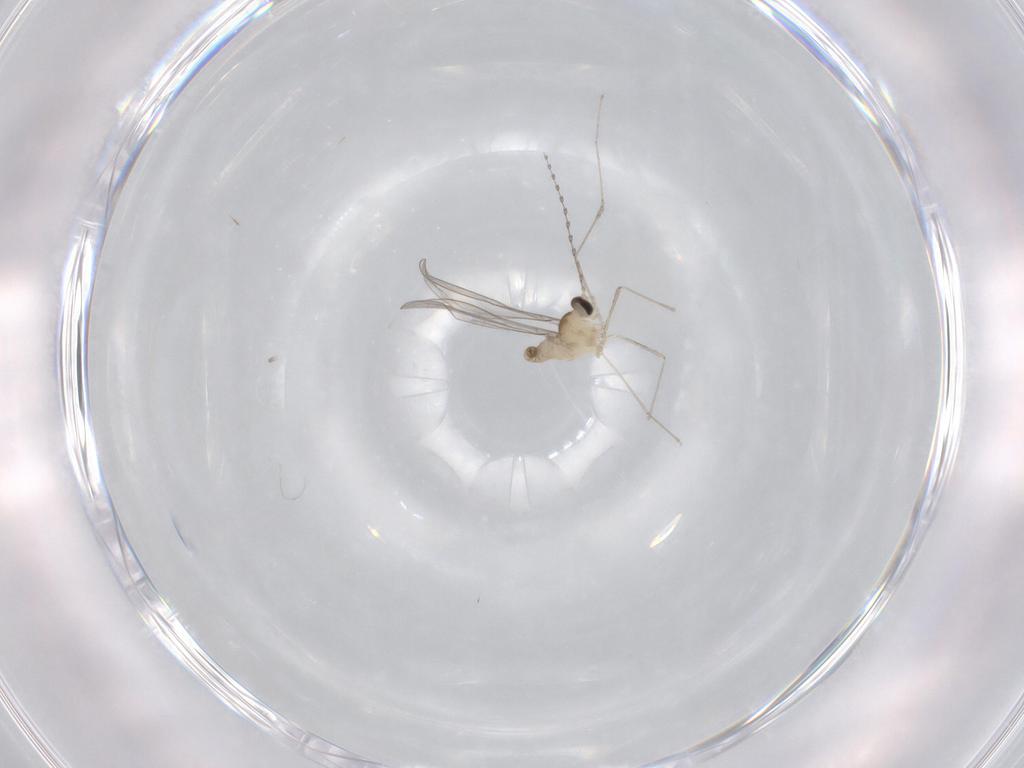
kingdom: Animalia
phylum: Arthropoda
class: Insecta
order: Diptera
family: Cecidomyiidae
